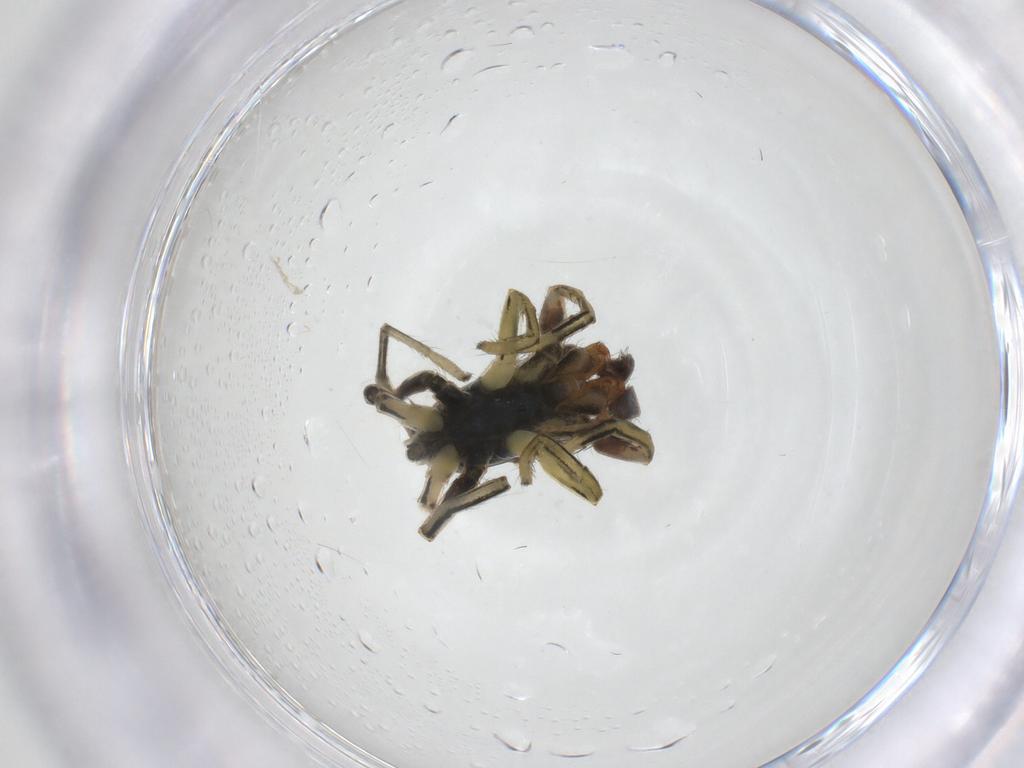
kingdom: Animalia
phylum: Arthropoda
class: Arachnida
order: Araneae
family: Salticidae
